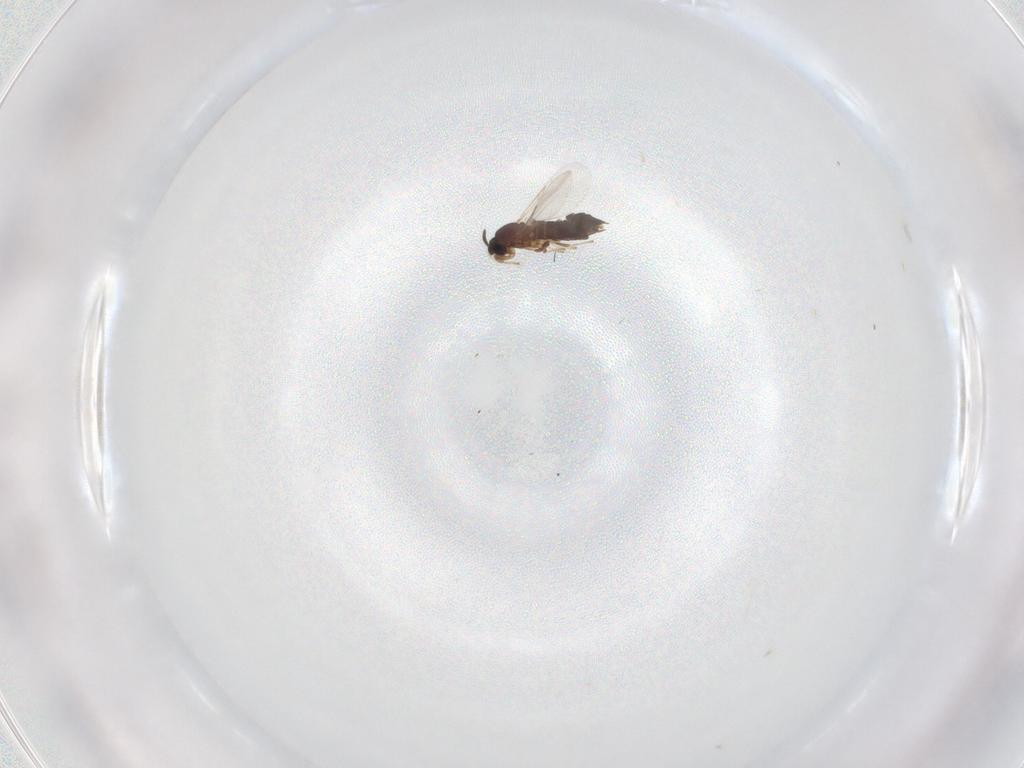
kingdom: Animalia
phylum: Arthropoda
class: Insecta
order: Diptera
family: Scatopsidae
